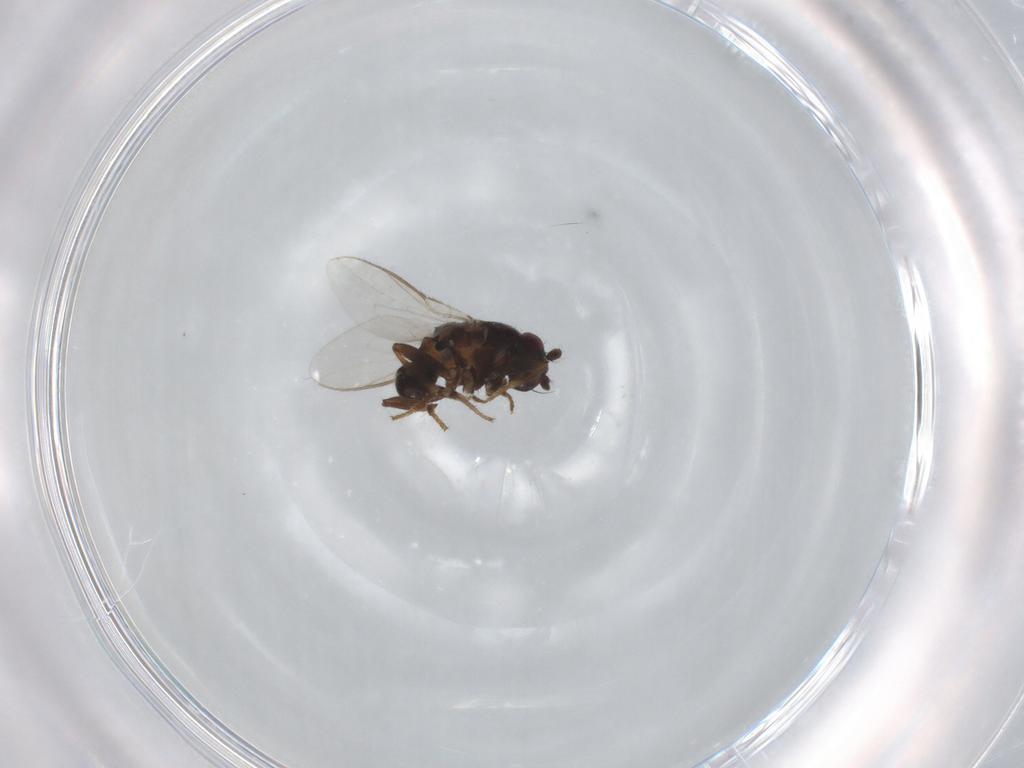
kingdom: Animalia
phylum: Arthropoda
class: Insecta
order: Diptera
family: Sphaeroceridae
